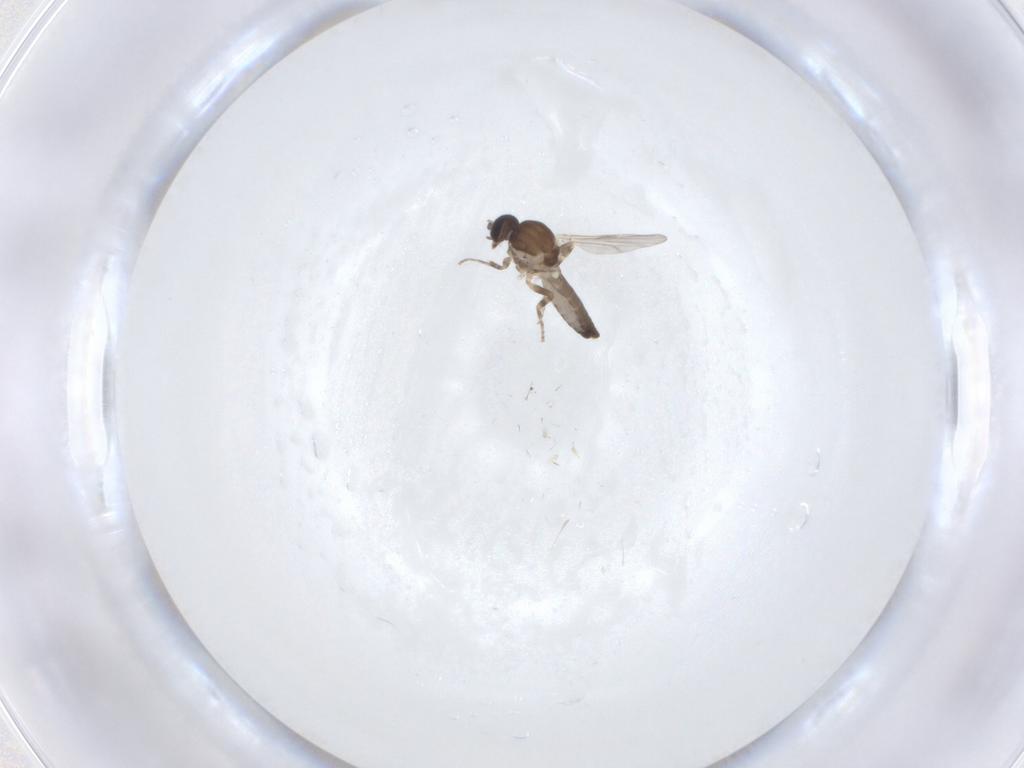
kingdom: Animalia
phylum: Arthropoda
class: Insecta
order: Diptera
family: Ceratopogonidae
